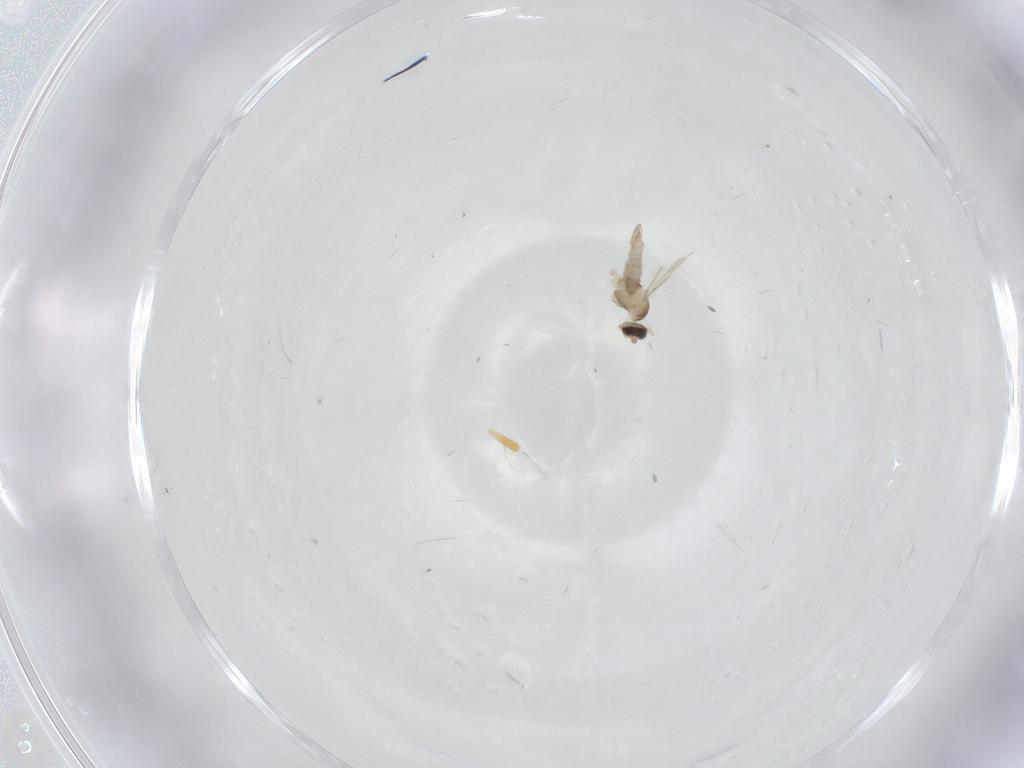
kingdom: Animalia
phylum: Arthropoda
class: Insecta
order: Diptera
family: Cecidomyiidae
